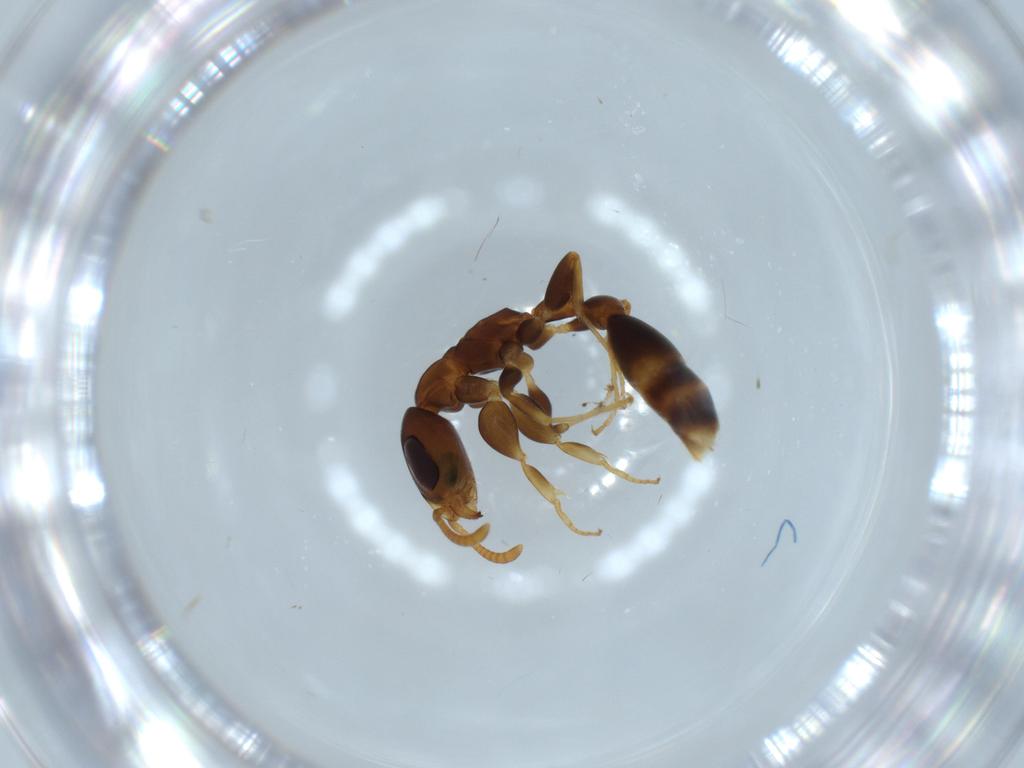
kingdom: Animalia
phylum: Arthropoda
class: Insecta
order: Hymenoptera
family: Formicidae
